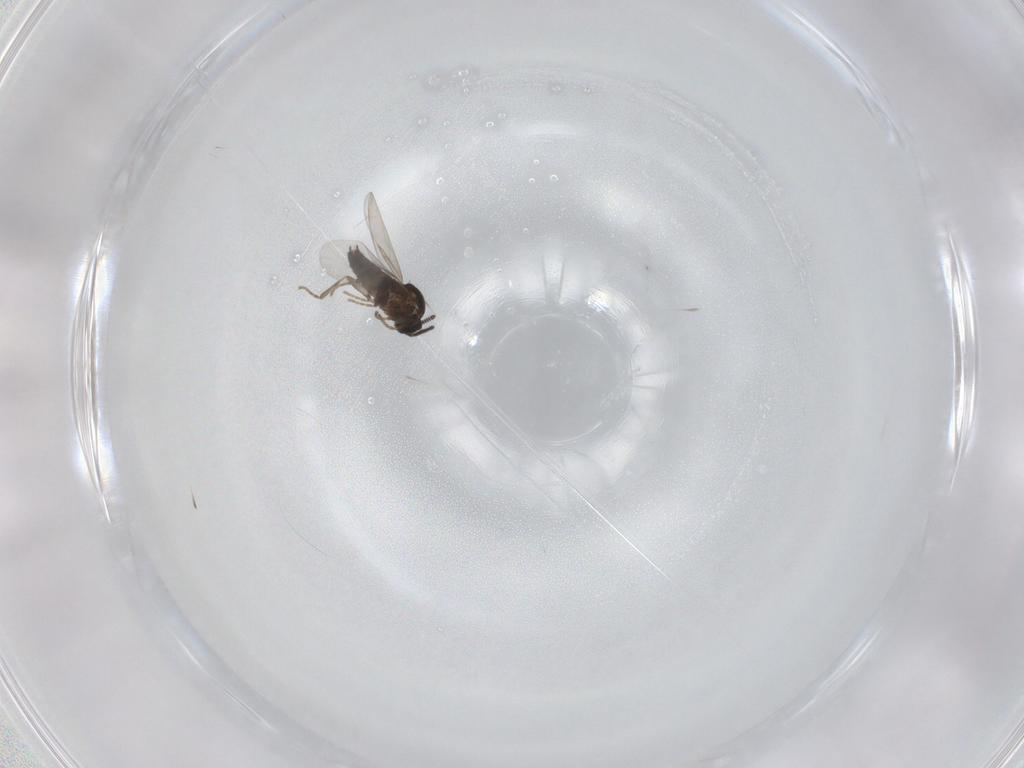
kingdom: Animalia
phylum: Arthropoda
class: Insecta
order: Diptera
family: Scatopsidae
